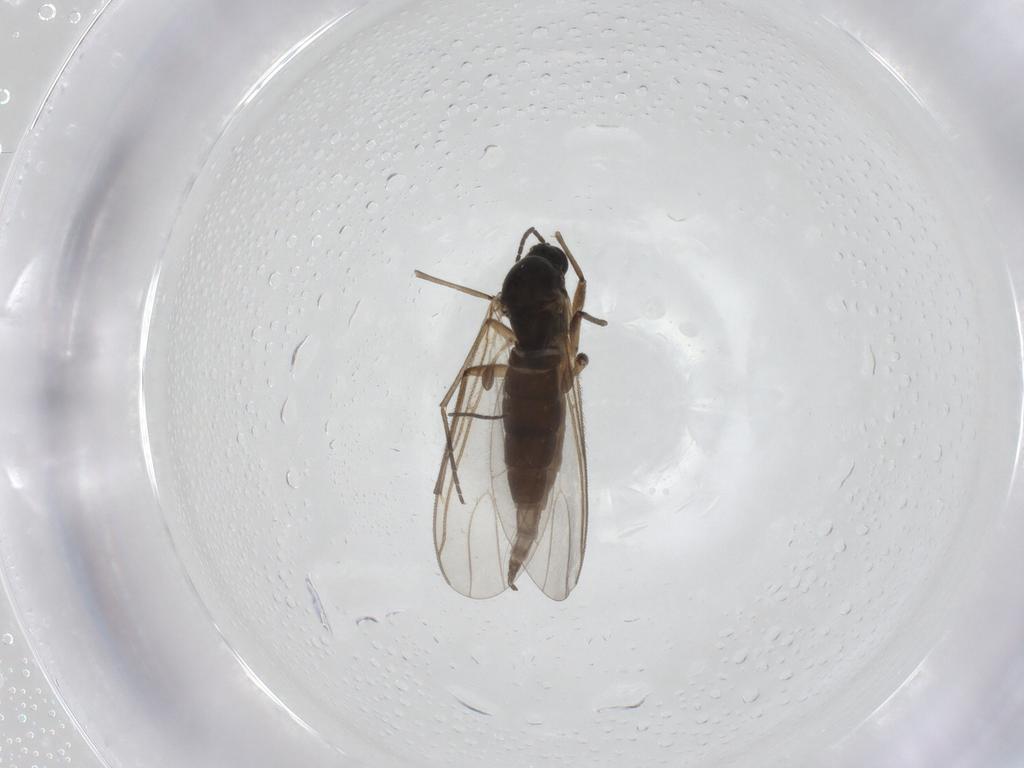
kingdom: Animalia
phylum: Arthropoda
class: Insecta
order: Diptera
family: Sciaridae
